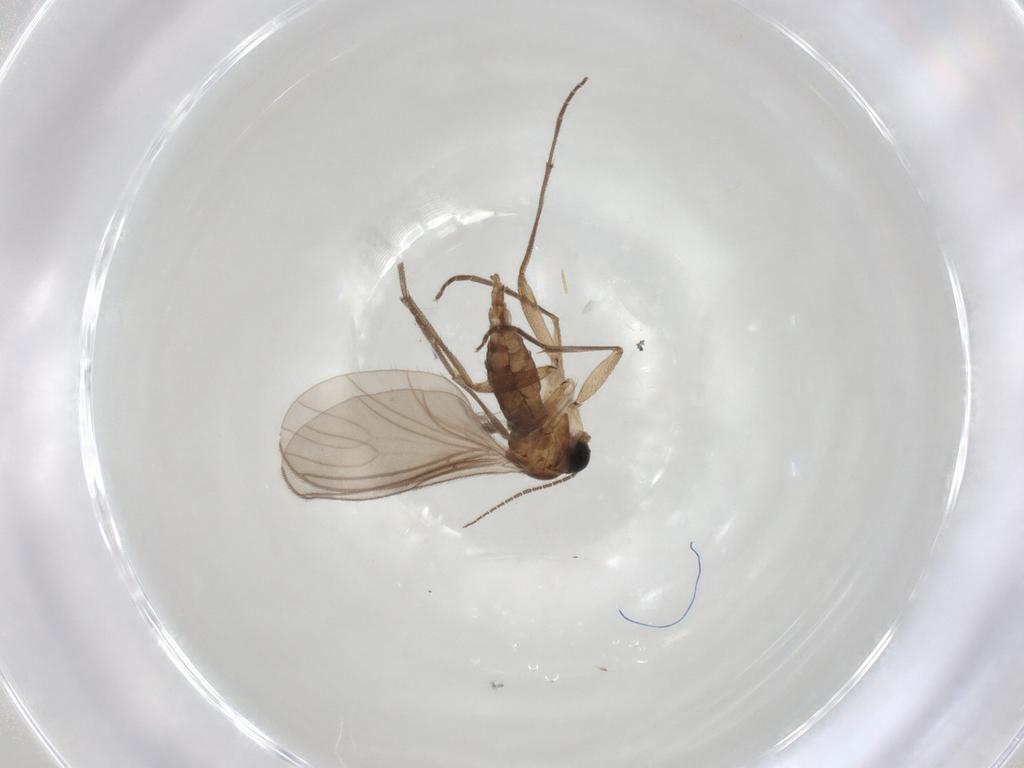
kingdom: Animalia
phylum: Arthropoda
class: Insecta
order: Diptera
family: Sciaridae
